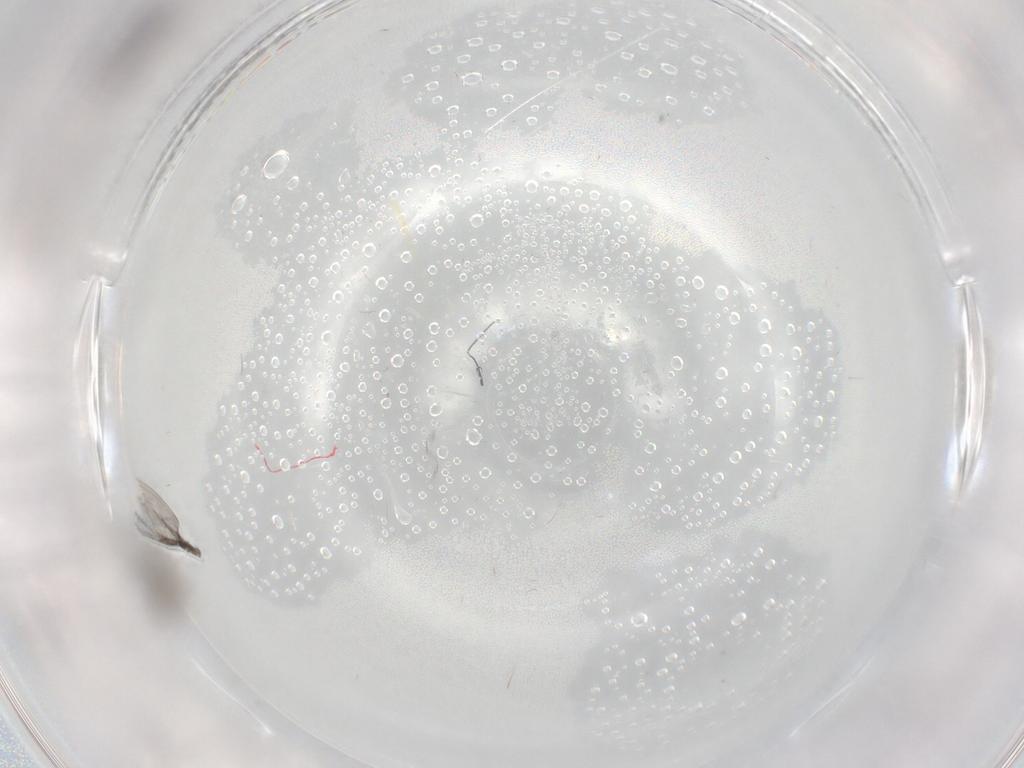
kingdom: Animalia
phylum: Arthropoda
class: Insecta
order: Diptera
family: Cecidomyiidae
